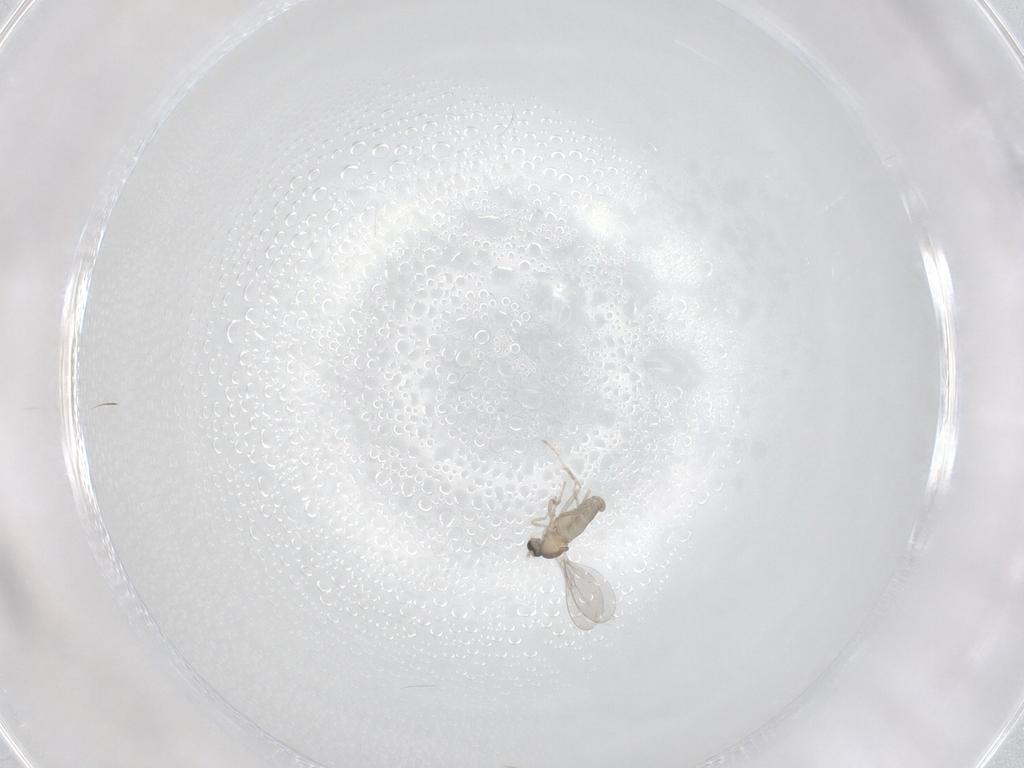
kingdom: Animalia
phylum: Arthropoda
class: Insecta
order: Diptera
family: Cecidomyiidae
